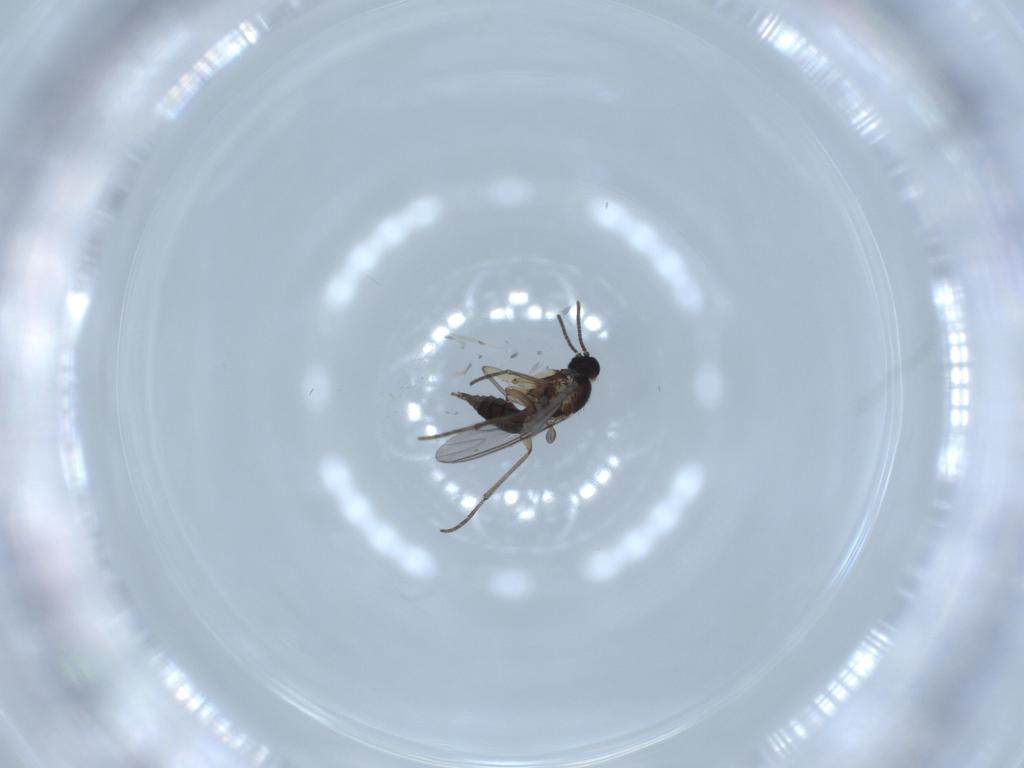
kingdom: Animalia
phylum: Arthropoda
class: Insecta
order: Diptera
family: Sciaridae
